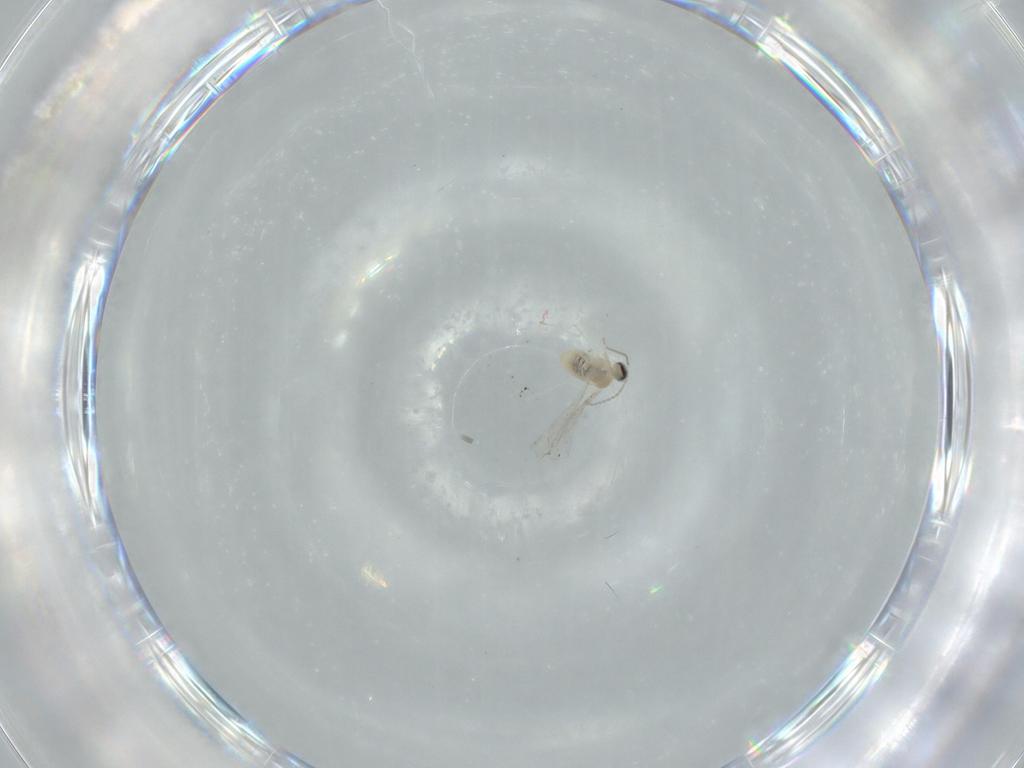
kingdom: Animalia
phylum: Arthropoda
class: Insecta
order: Diptera
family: Cecidomyiidae
